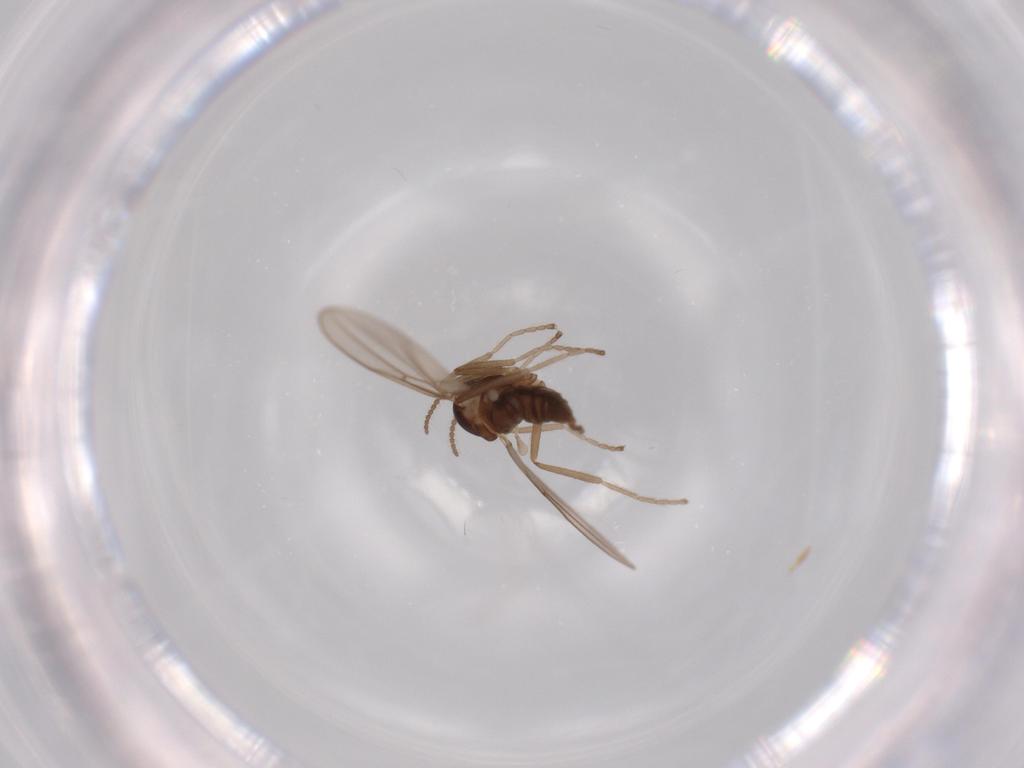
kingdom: Animalia
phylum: Arthropoda
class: Insecta
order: Diptera
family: Cecidomyiidae
